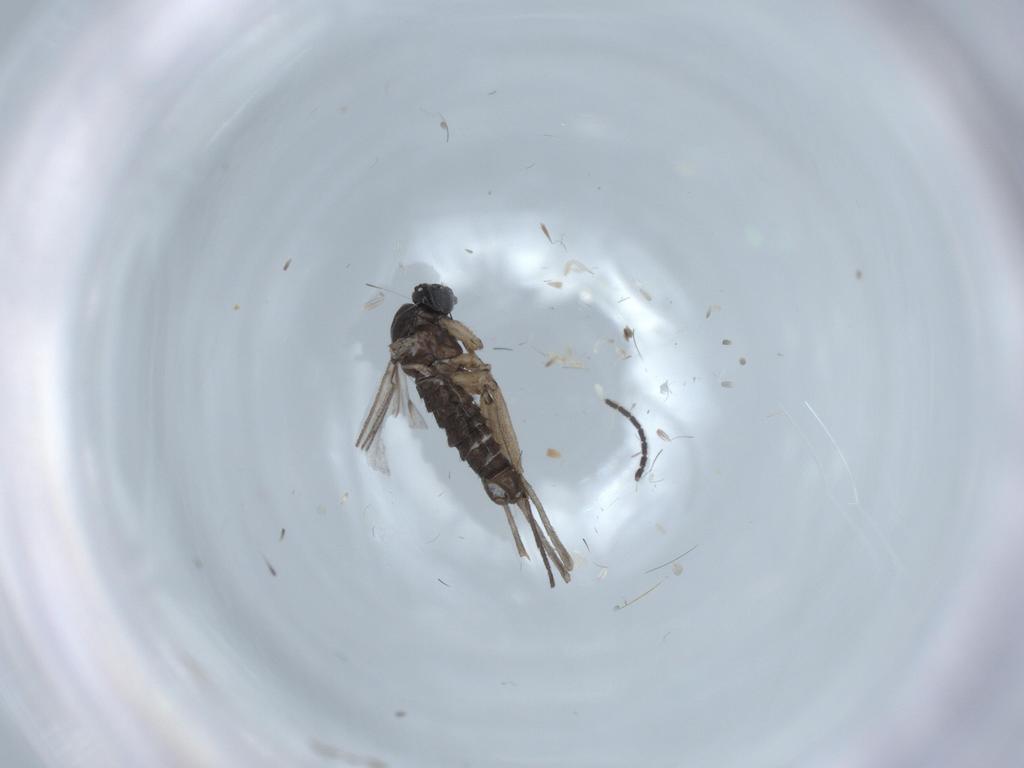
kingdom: Animalia
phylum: Arthropoda
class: Insecta
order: Diptera
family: Sciaridae
